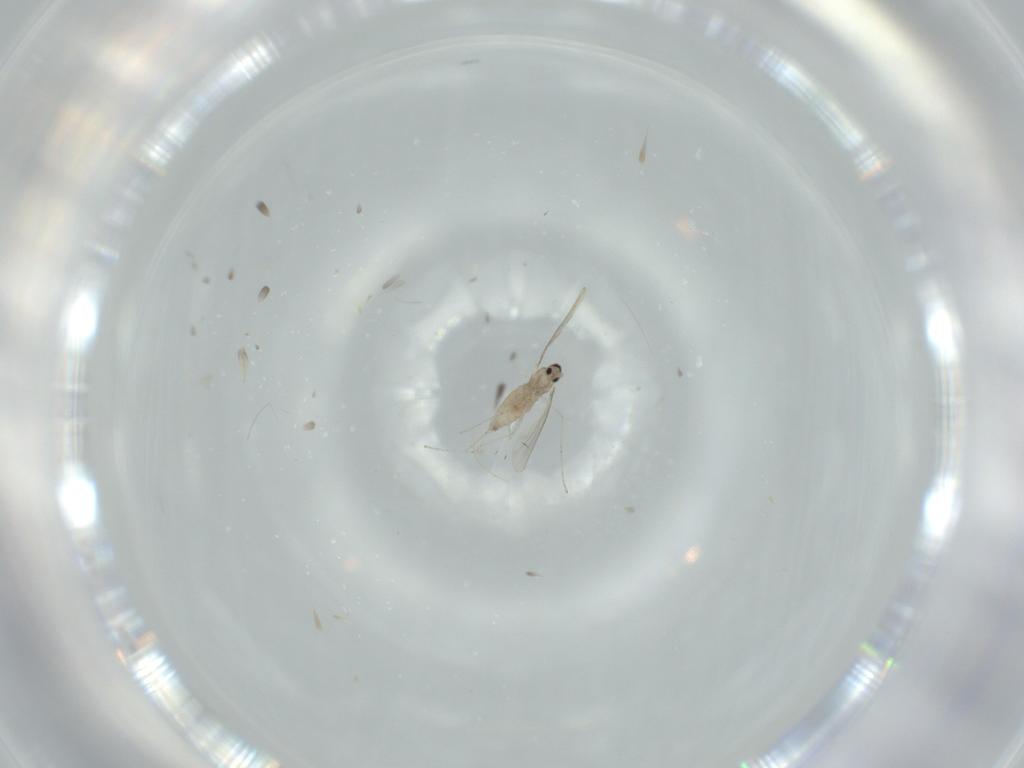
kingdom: Animalia
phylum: Arthropoda
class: Insecta
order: Diptera
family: Cecidomyiidae
